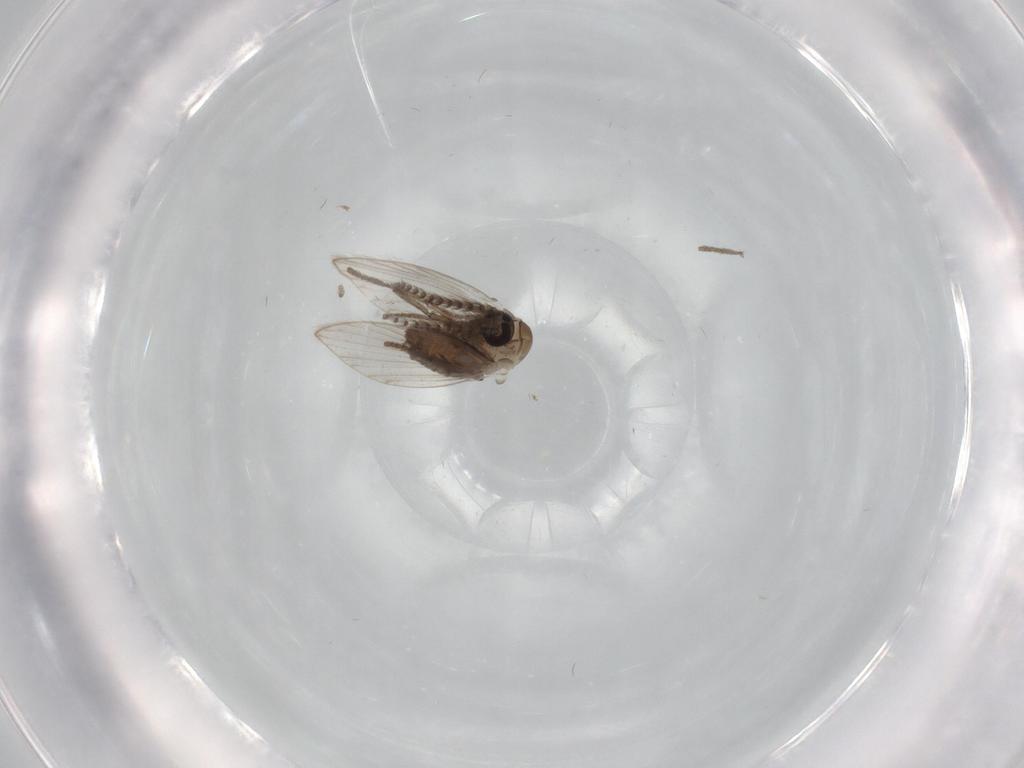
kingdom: Animalia
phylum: Arthropoda
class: Insecta
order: Diptera
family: Psychodidae
